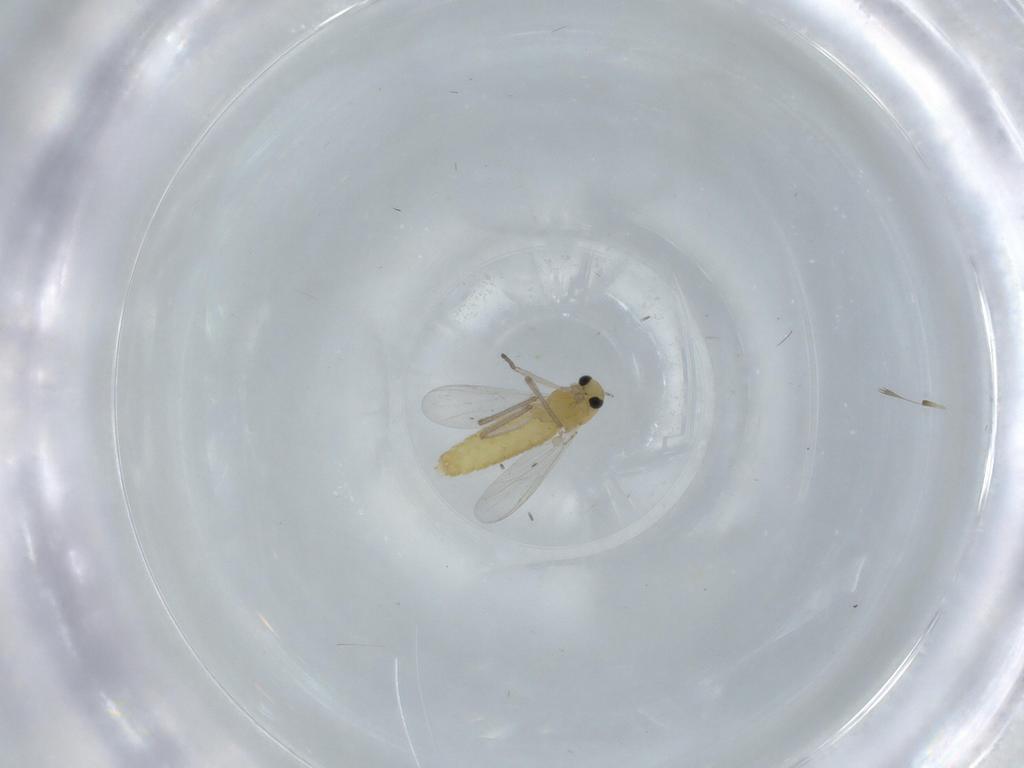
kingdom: Animalia
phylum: Arthropoda
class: Insecta
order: Diptera
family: Chironomidae
